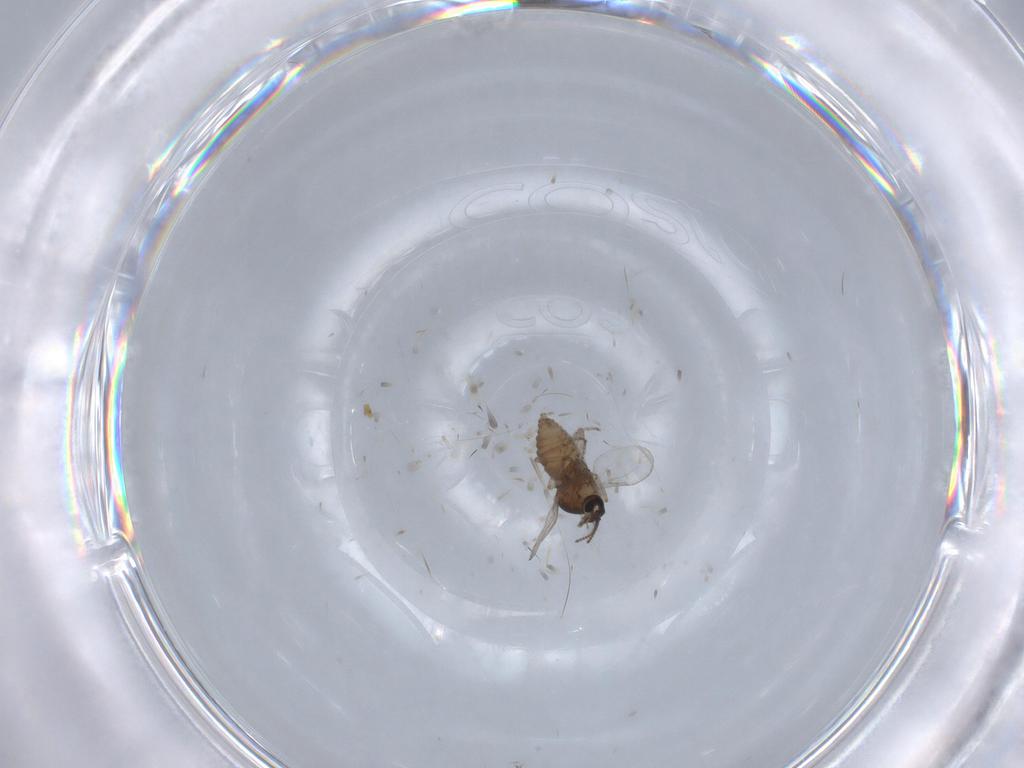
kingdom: Animalia
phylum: Arthropoda
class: Insecta
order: Diptera
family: Ceratopogonidae
